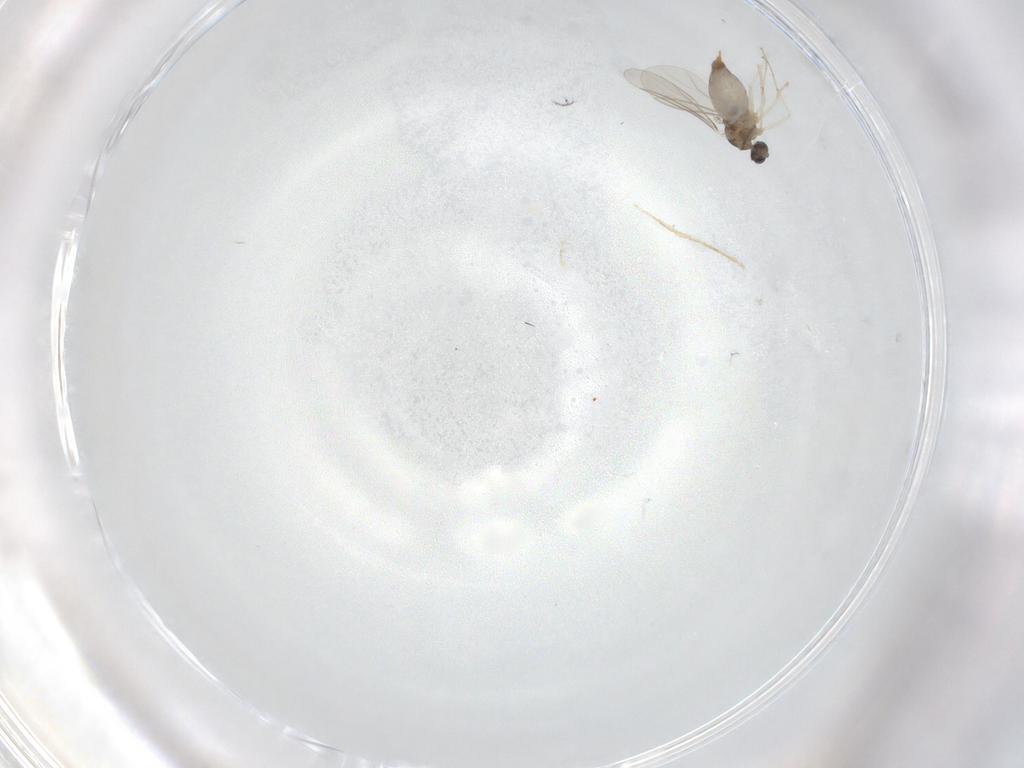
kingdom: Animalia
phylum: Arthropoda
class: Insecta
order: Diptera
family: Cecidomyiidae
